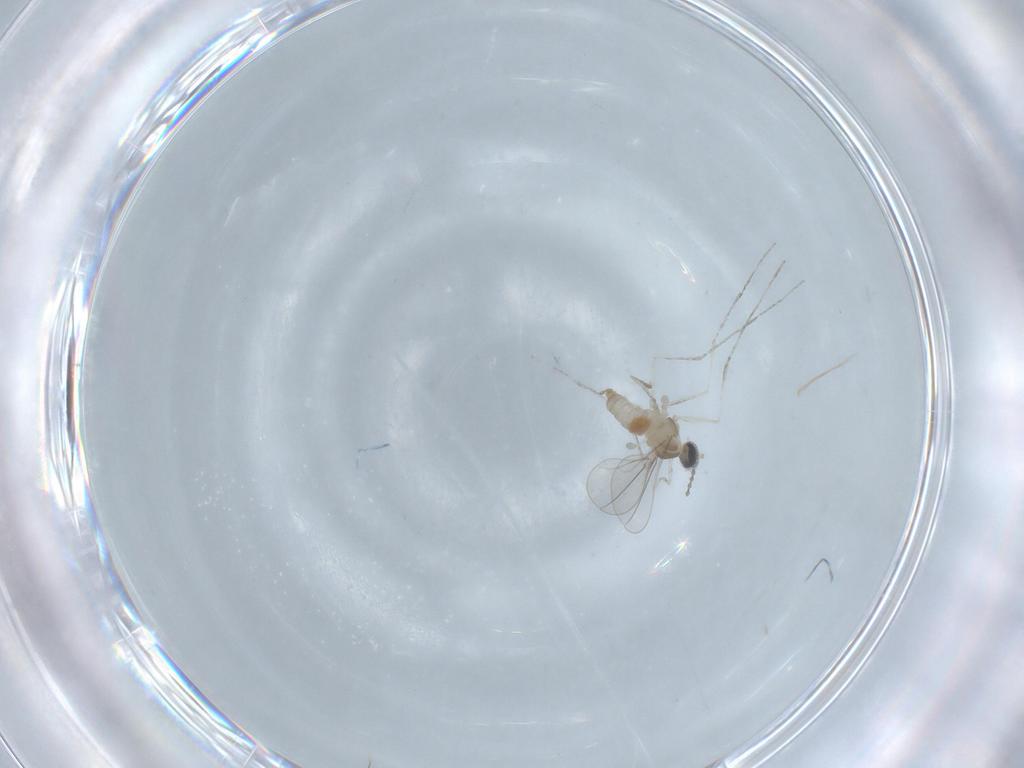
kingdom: Animalia
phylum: Arthropoda
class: Insecta
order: Diptera
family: Cecidomyiidae
